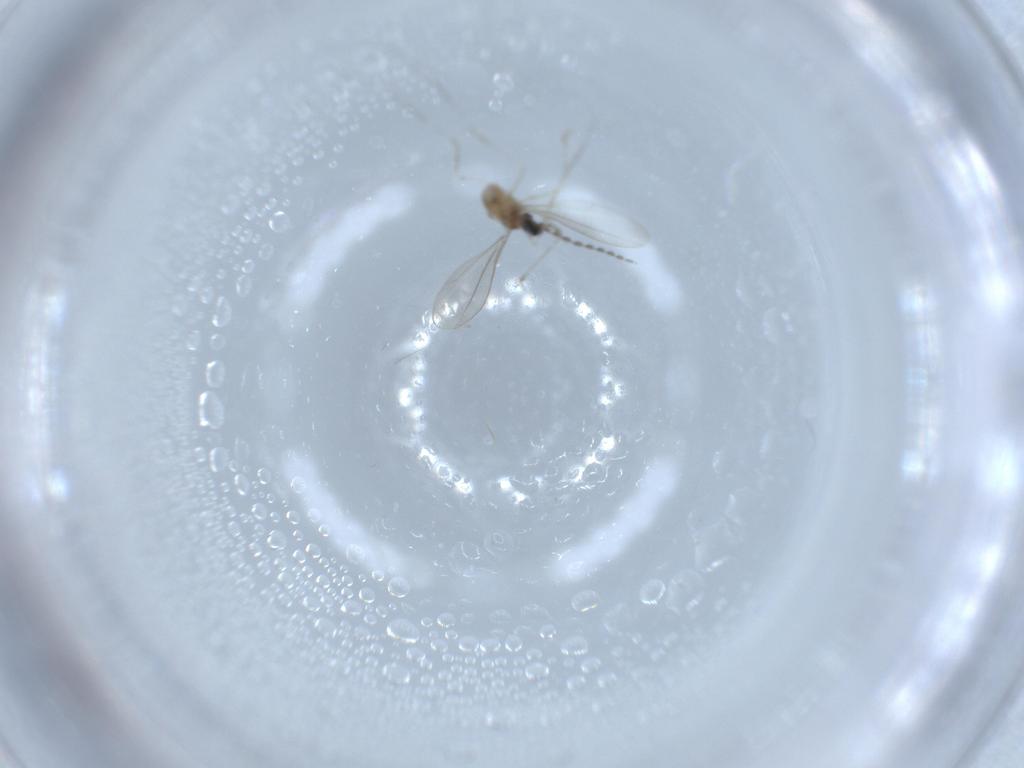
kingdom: Animalia
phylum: Arthropoda
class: Insecta
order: Diptera
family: Cecidomyiidae
